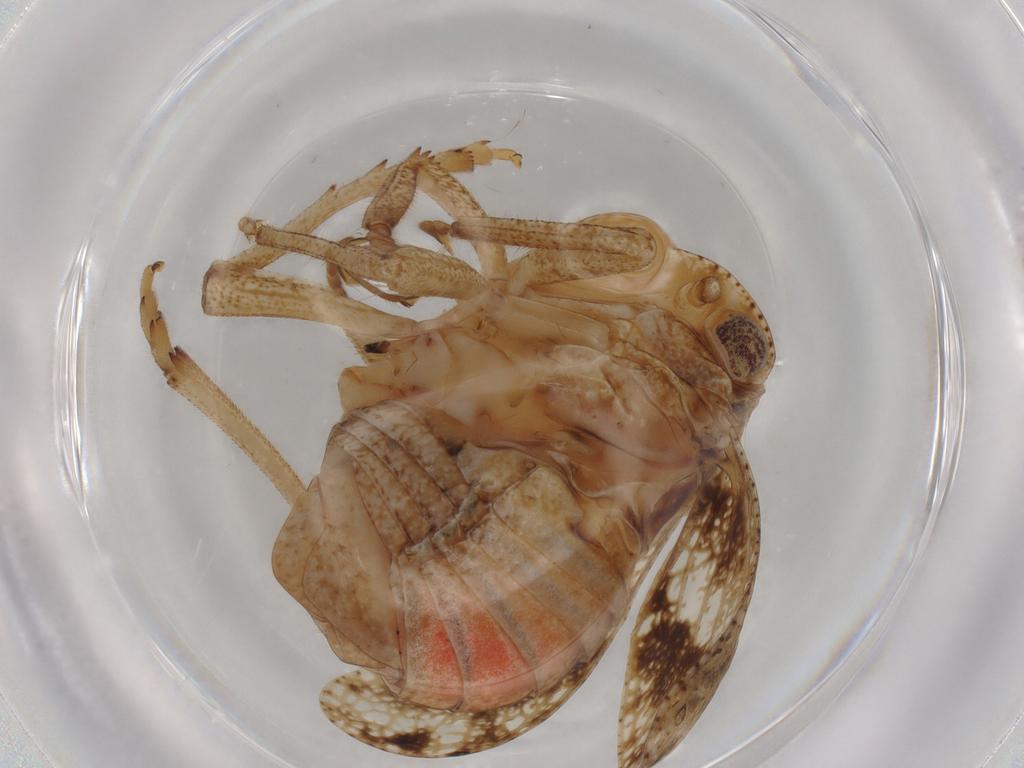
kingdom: Animalia
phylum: Arthropoda
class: Insecta
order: Hemiptera
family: Tropiduchidae
